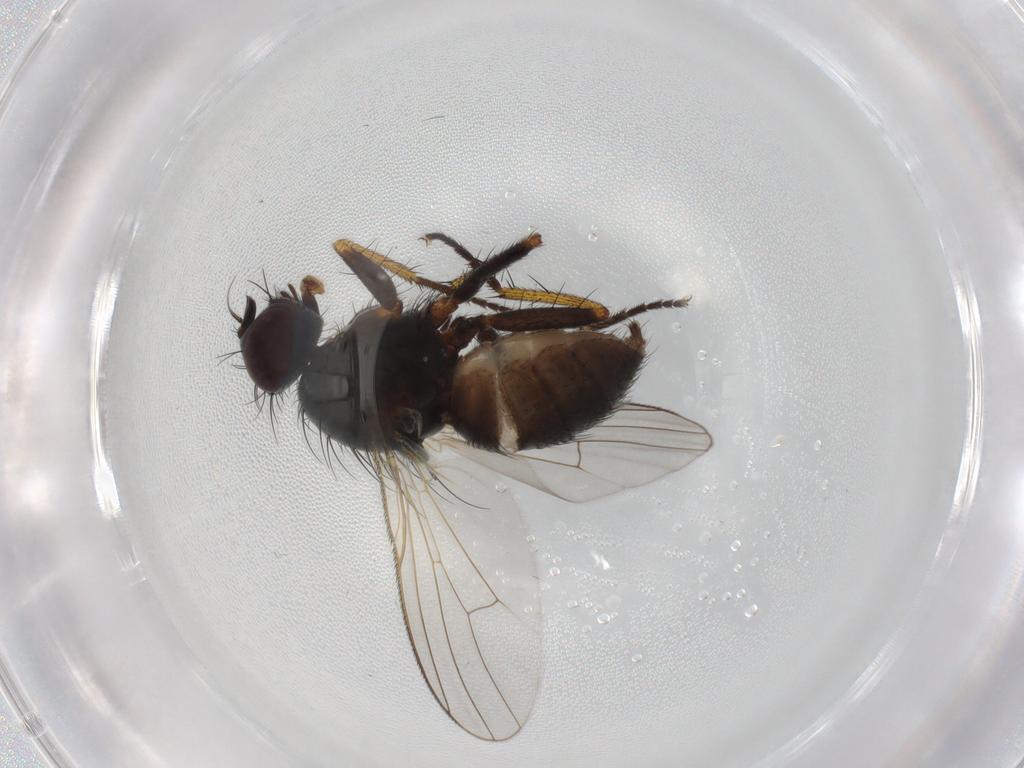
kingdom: Animalia
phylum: Arthropoda
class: Insecta
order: Diptera
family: Muscidae
